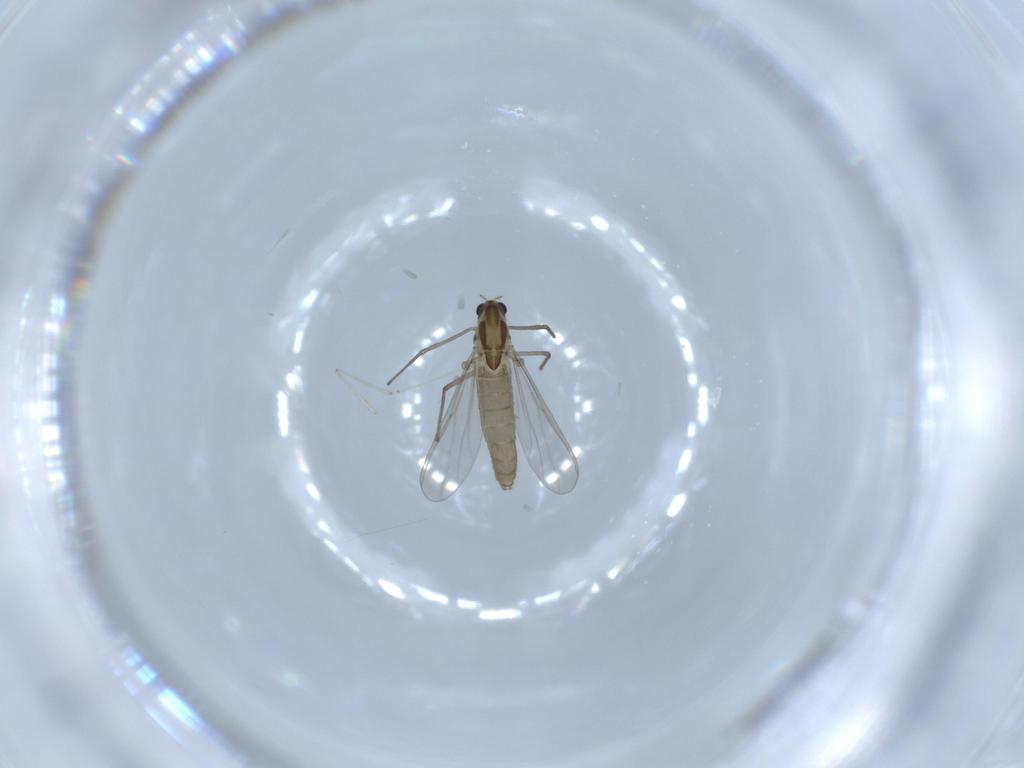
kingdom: Animalia
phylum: Arthropoda
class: Insecta
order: Diptera
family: Chironomidae
